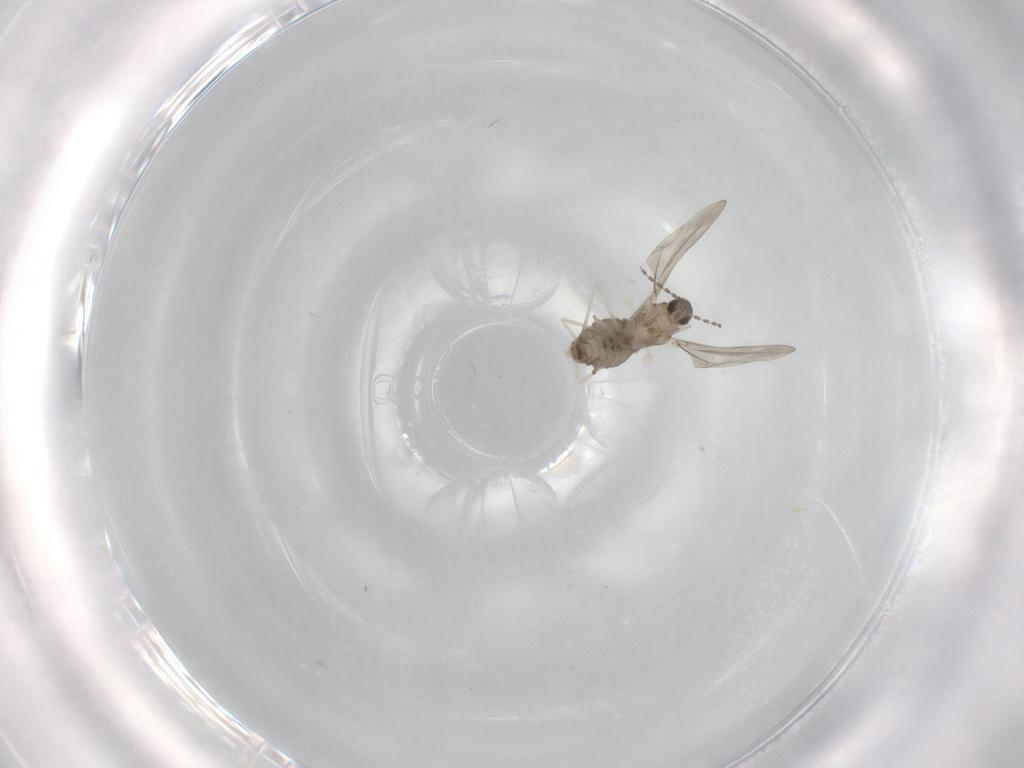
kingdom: Animalia
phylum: Arthropoda
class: Insecta
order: Diptera
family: Cecidomyiidae
